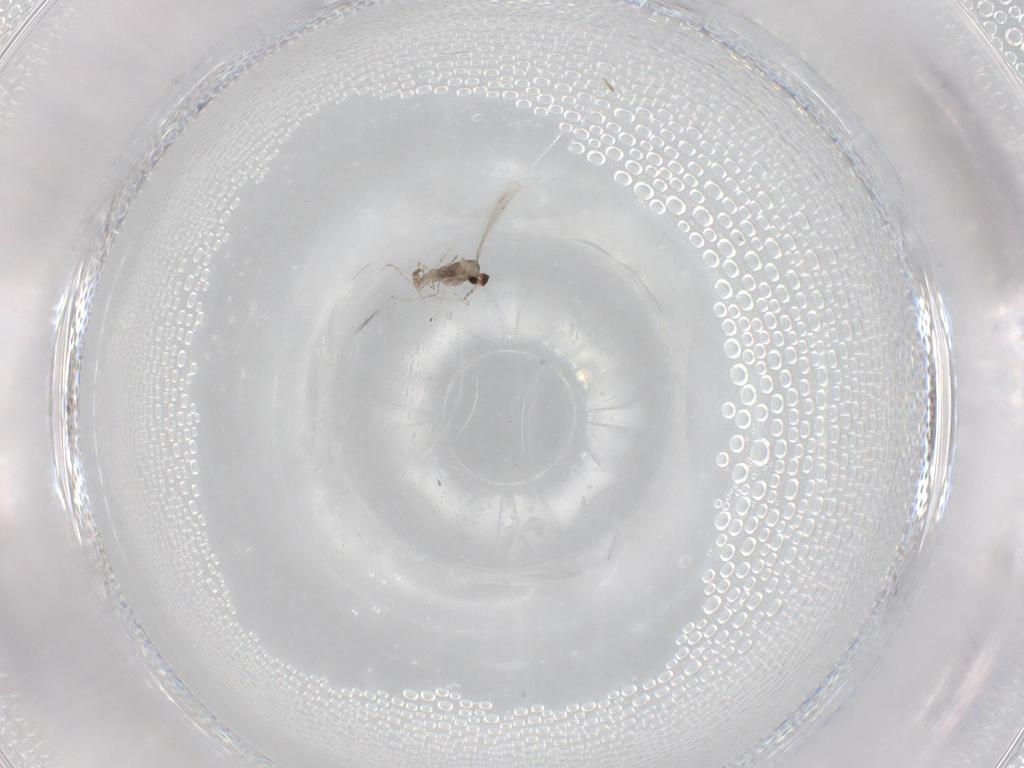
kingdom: Animalia
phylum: Arthropoda
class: Insecta
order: Diptera
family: Cecidomyiidae
